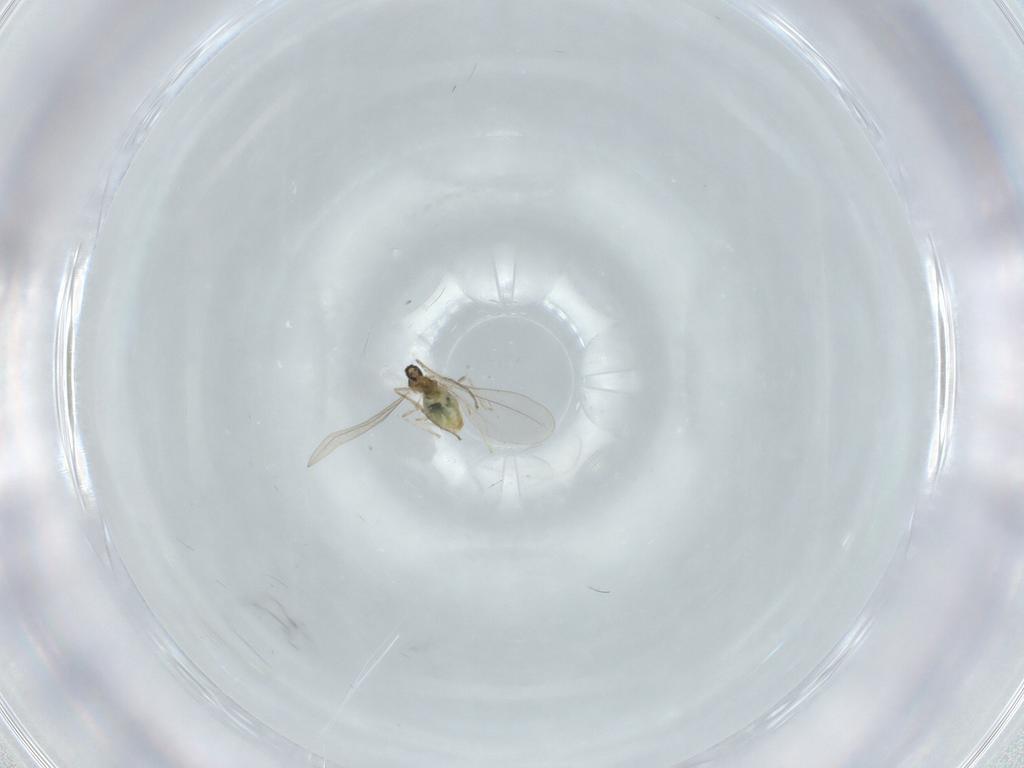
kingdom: Animalia
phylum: Arthropoda
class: Insecta
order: Diptera
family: Cecidomyiidae
